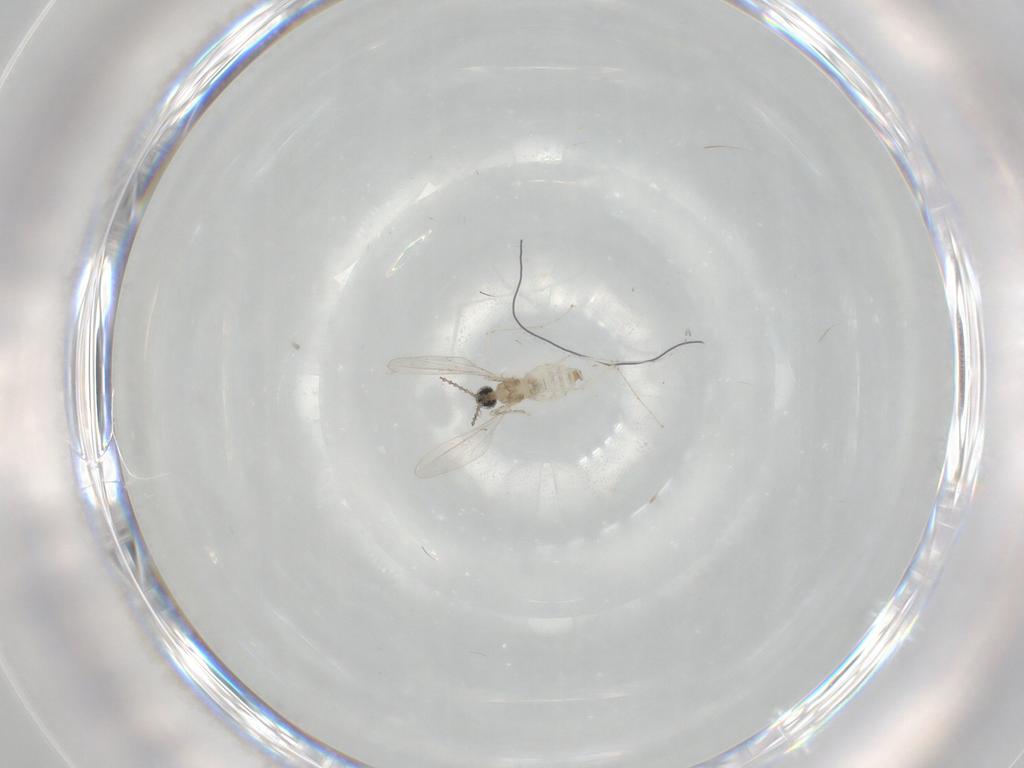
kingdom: Animalia
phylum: Arthropoda
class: Insecta
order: Diptera
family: Cecidomyiidae
